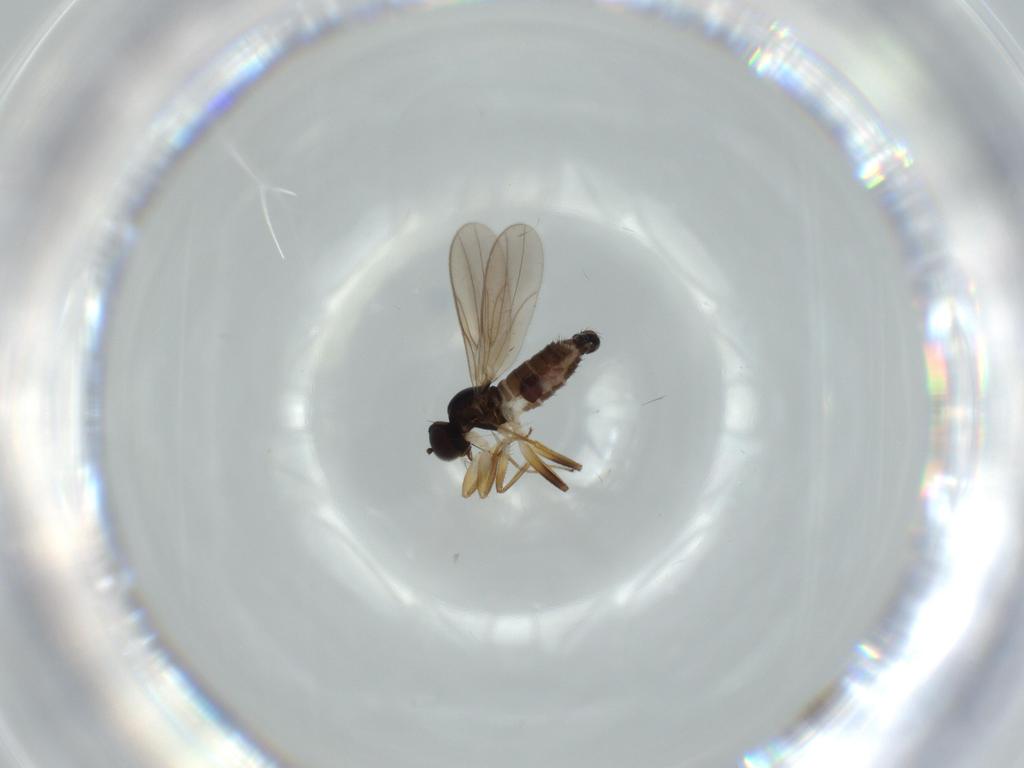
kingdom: Animalia
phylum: Arthropoda
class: Insecta
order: Diptera
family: Hybotidae
